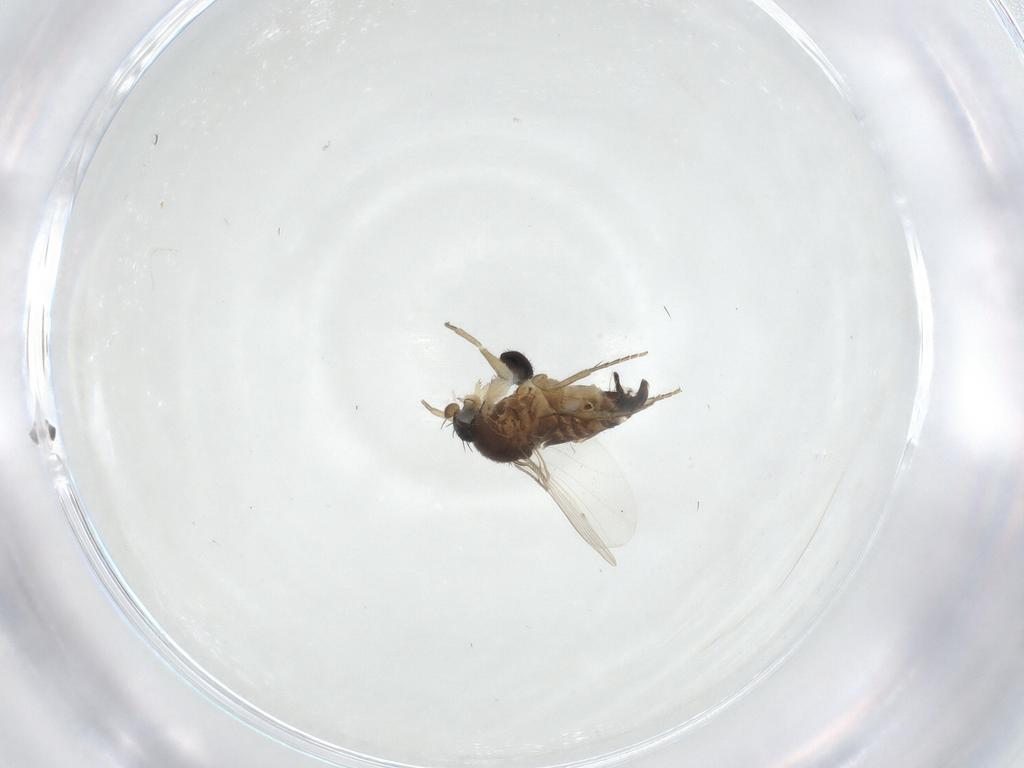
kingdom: Animalia
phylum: Arthropoda
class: Insecta
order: Diptera
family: Phoridae
